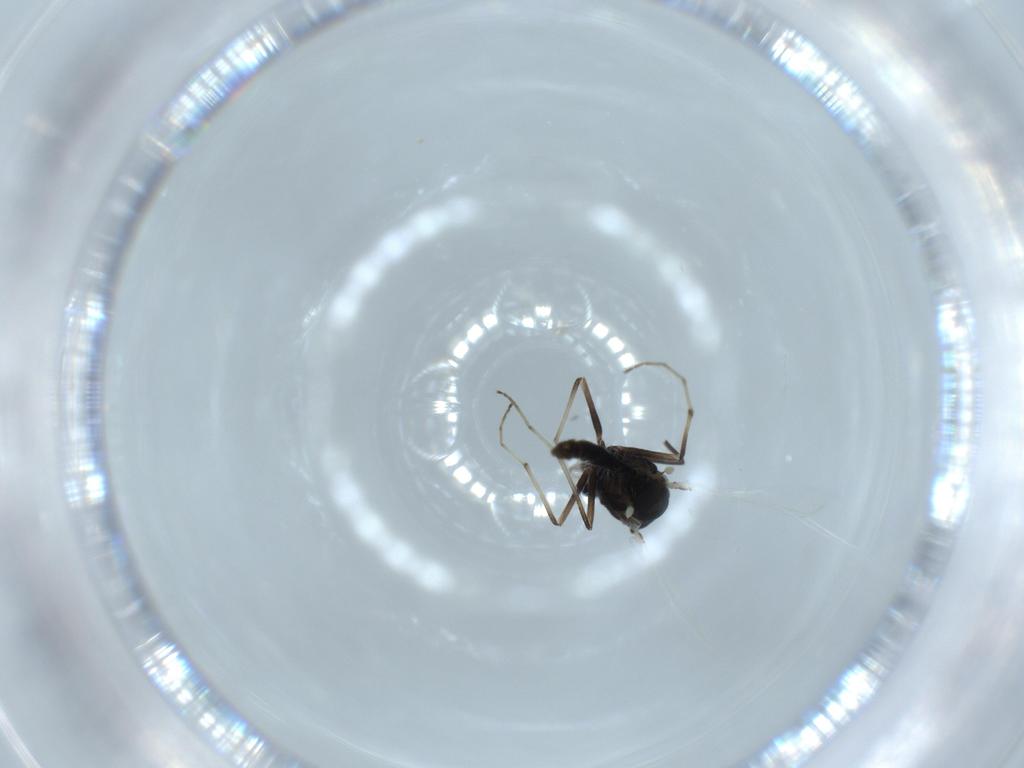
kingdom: Animalia
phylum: Arthropoda
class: Insecta
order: Diptera
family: Chironomidae
